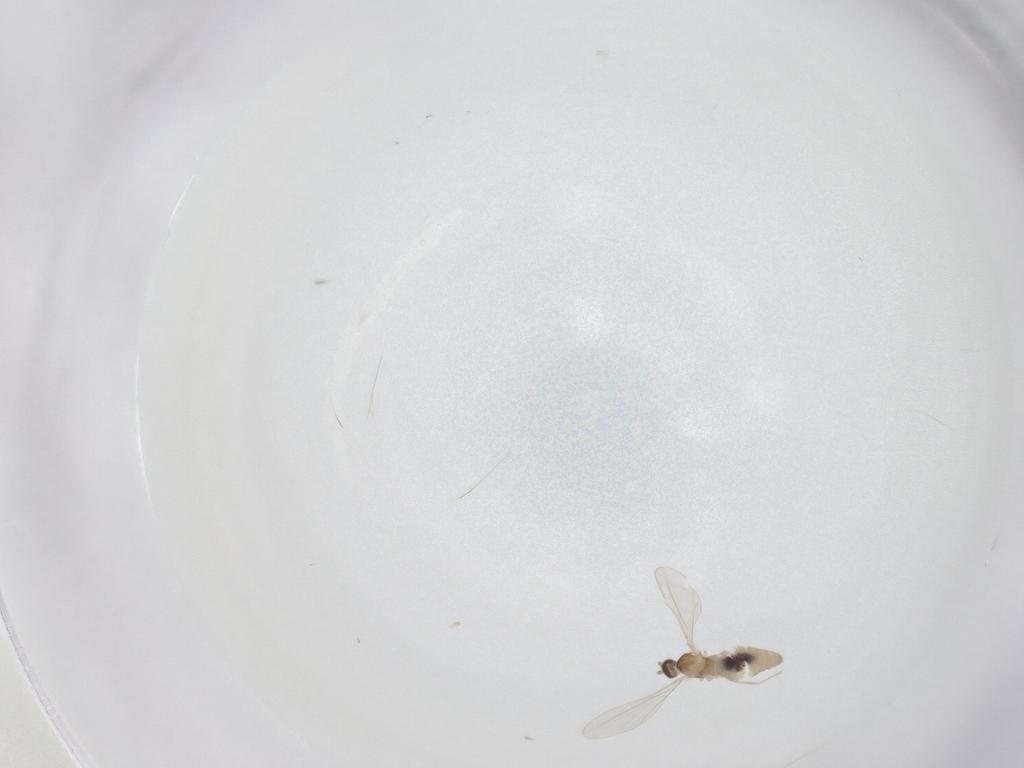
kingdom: Animalia
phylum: Arthropoda
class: Insecta
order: Diptera
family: Cecidomyiidae
